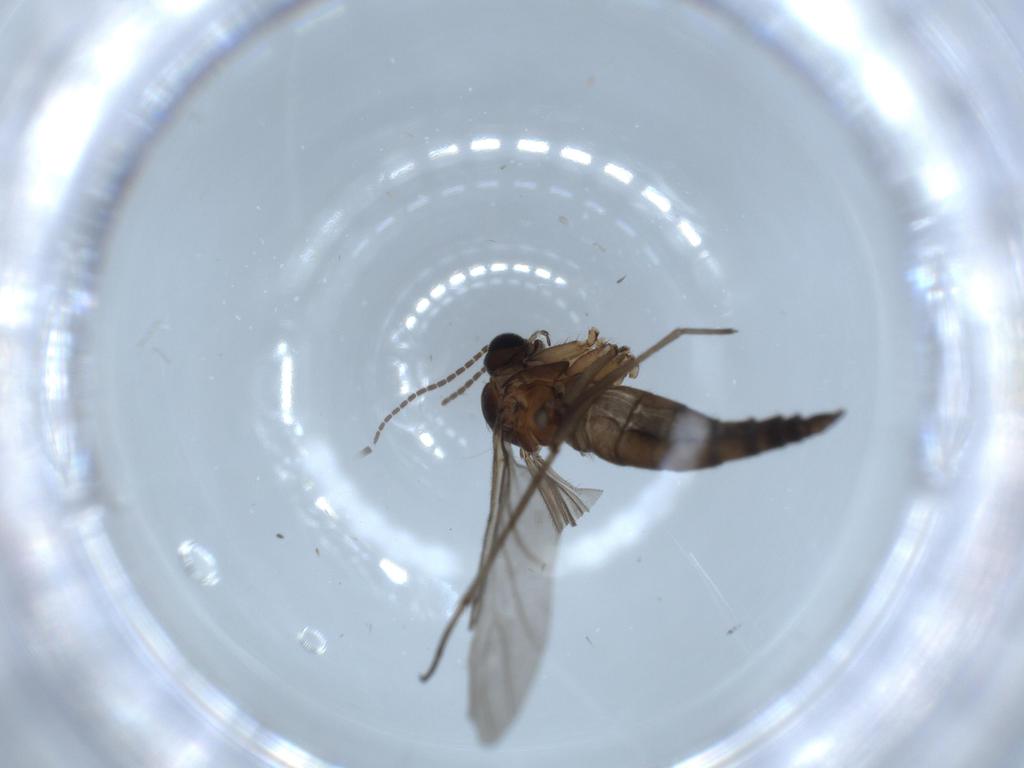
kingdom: Animalia
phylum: Arthropoda
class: Insecta
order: Diptera
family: Sciaridae
